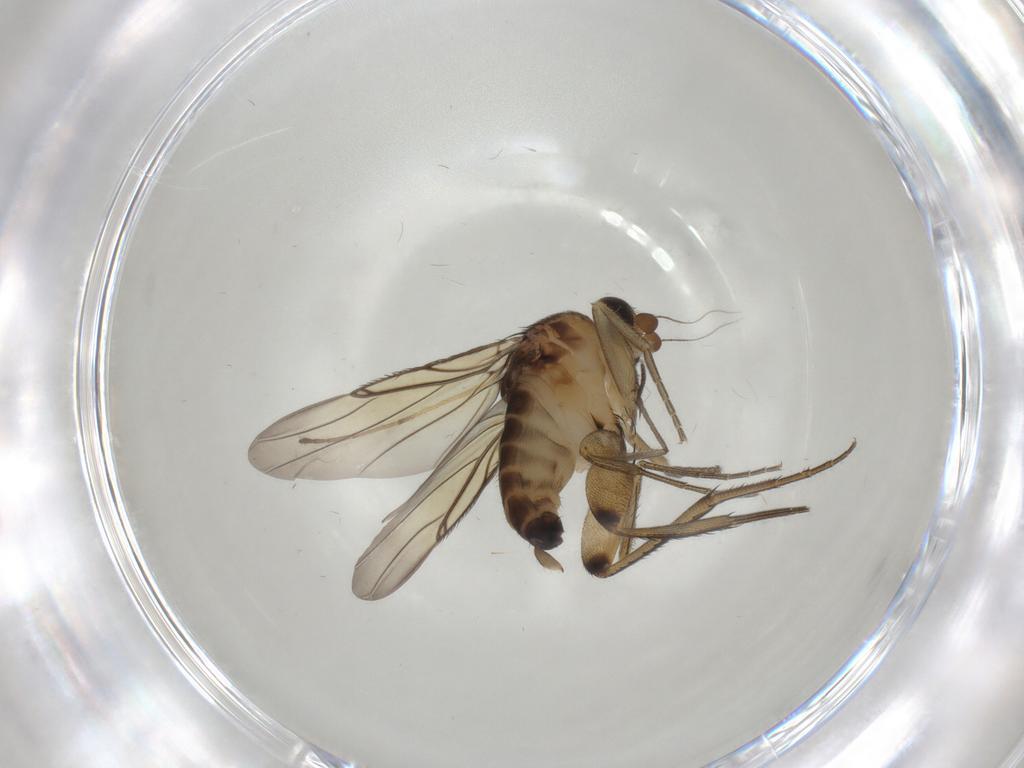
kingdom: Animalia
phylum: Arthropoda
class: Insecta
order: Diptera
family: Phoridae
